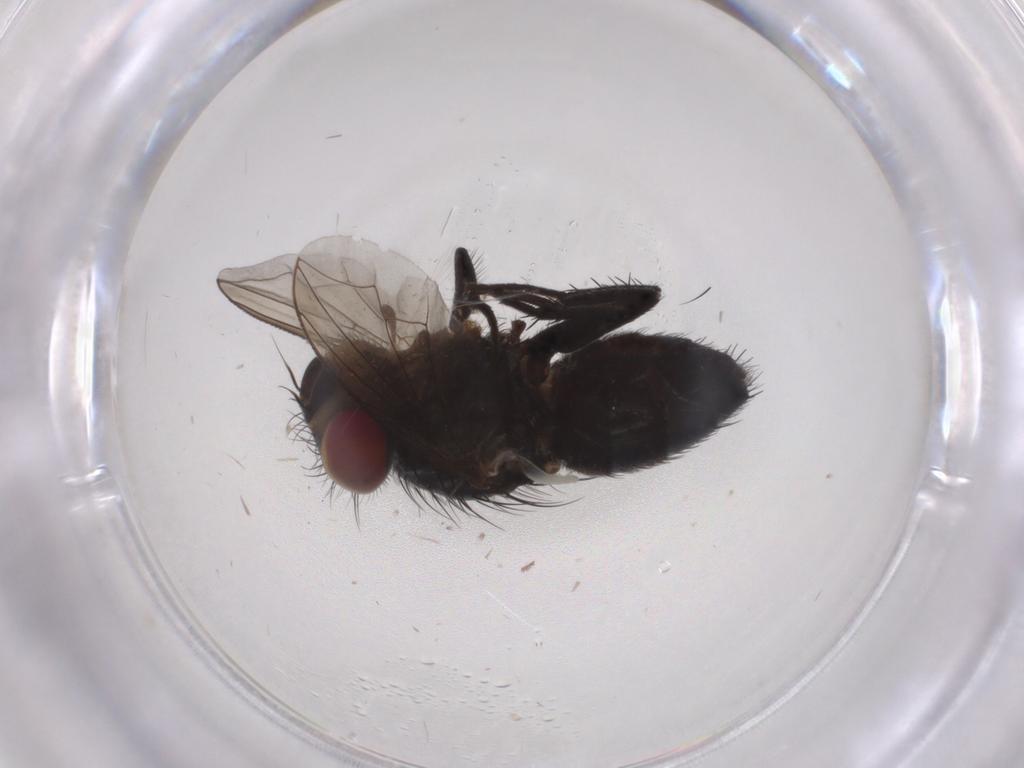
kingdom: Animalia
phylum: Arthropoda
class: Insecta
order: Diptera
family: Calliphoridae
